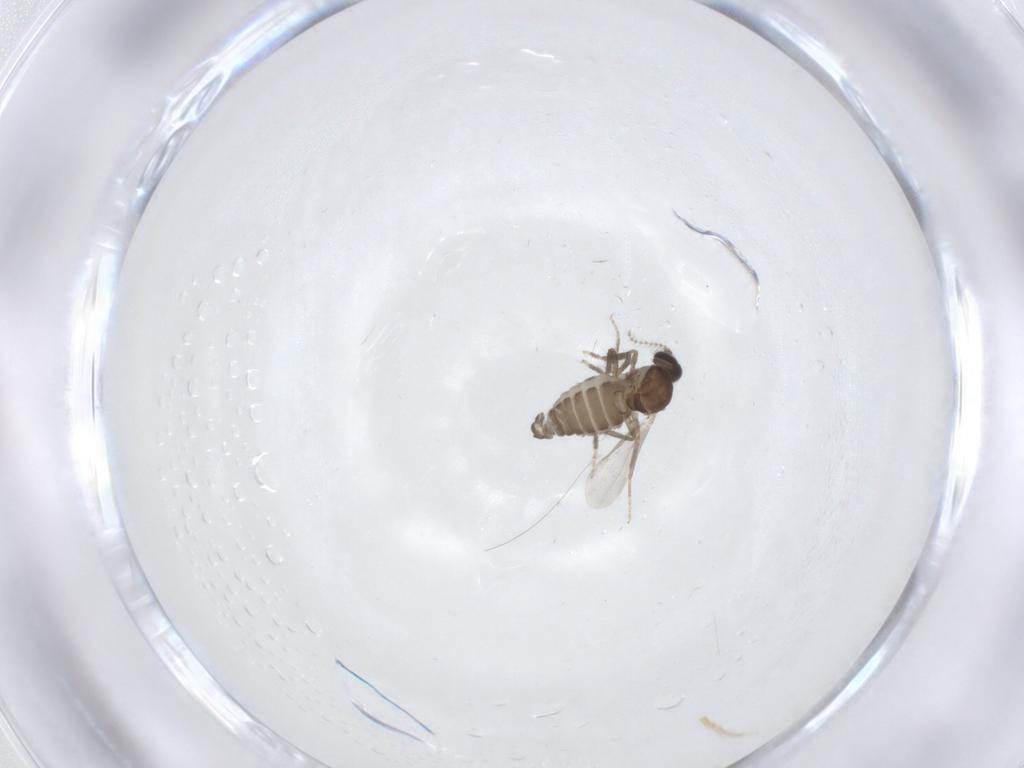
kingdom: Animalia
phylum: Arthropoda
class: Insecta
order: Diptera
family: Ceratopogonidae
